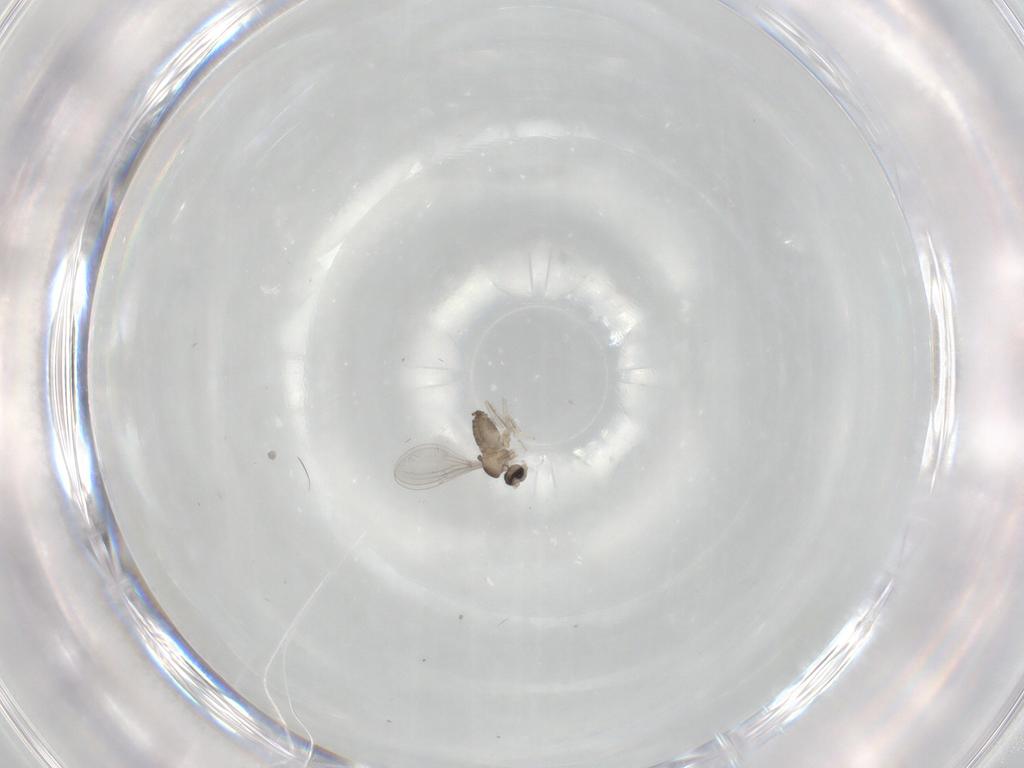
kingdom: Animalia
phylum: Arthropoda
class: Insecta
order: Diptera
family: Cecidomyiidae
